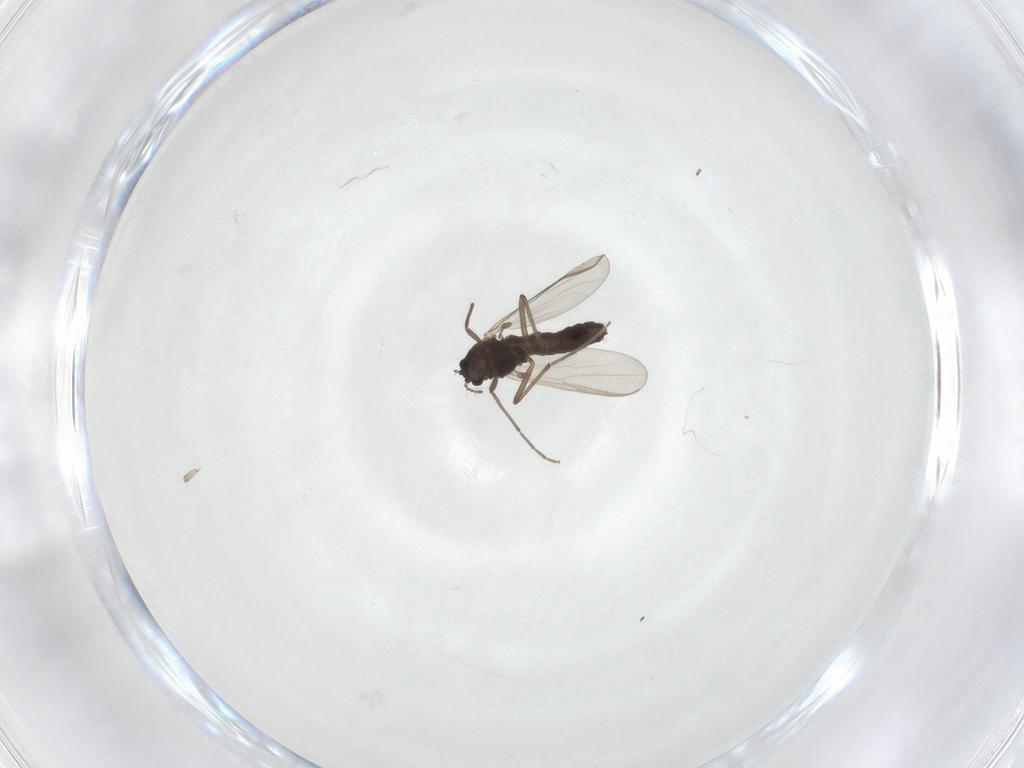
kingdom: Animalia
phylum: Arthropoda
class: Insecta
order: Diptera
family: Chironomidae
